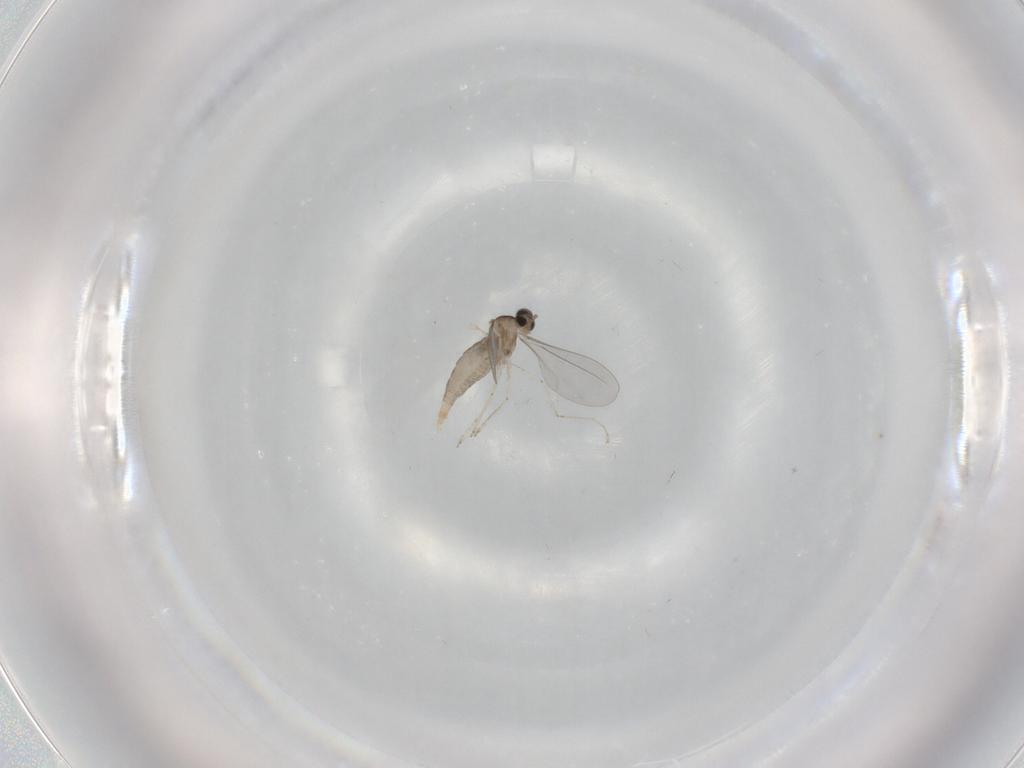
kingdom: Animalia
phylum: Arthropoda
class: Insecta
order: Diptera
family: Cecidomyiidae
